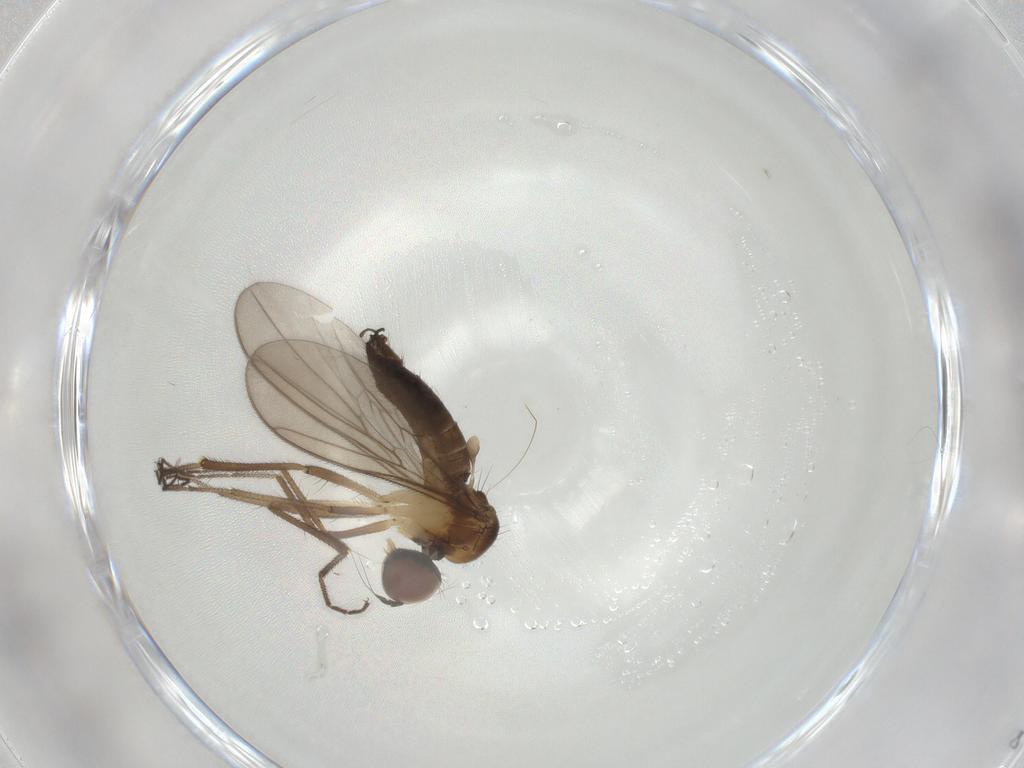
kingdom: Animalia
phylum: Arthropoda
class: Insecta
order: Diptera
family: Hybotidae
